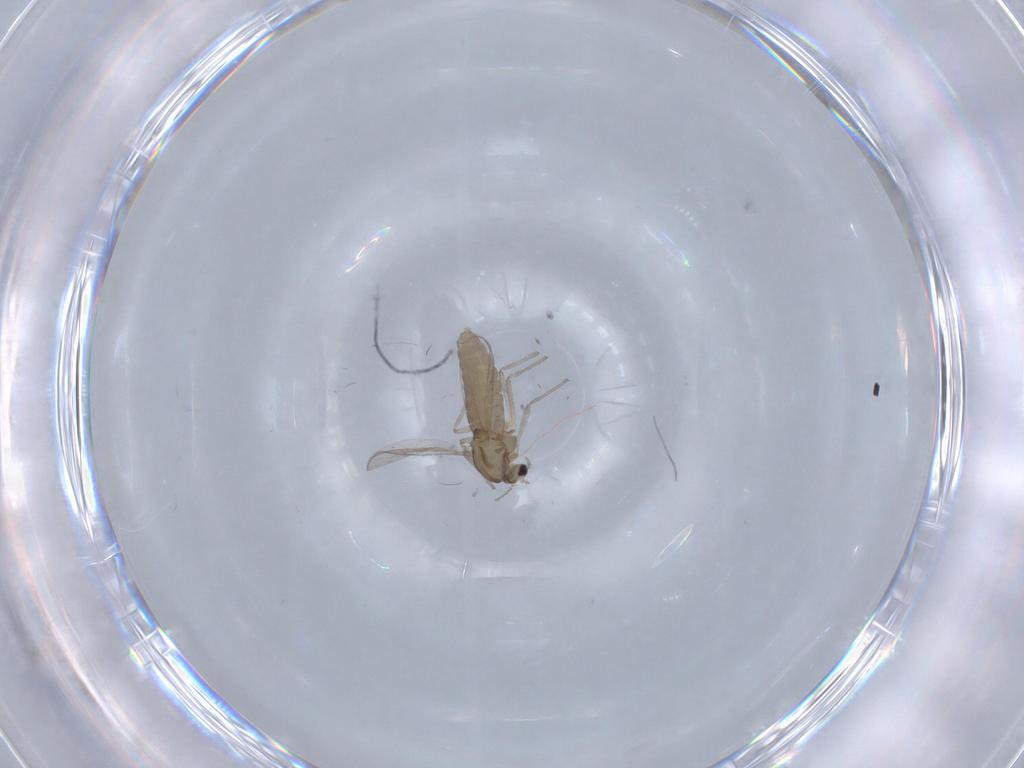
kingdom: Animalia
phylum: Arthropoda
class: Insecta
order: Diptera
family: Chironomidae
